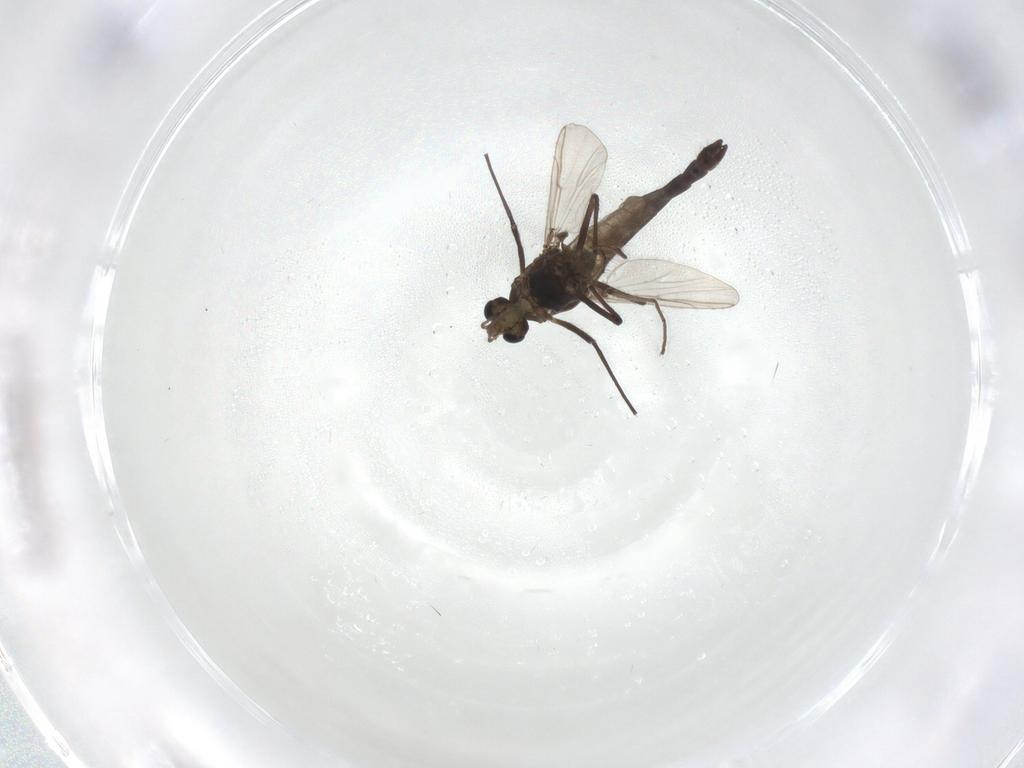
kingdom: Animalia
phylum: Arthropoda
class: Insecta
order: Diptera
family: Chironomidae
